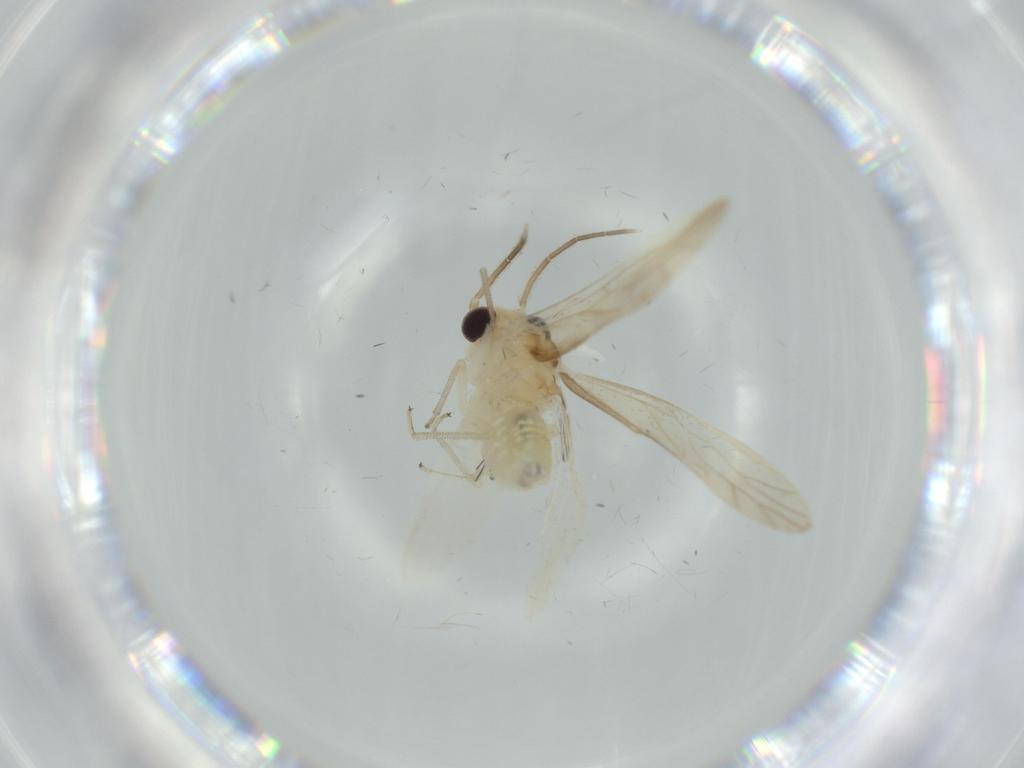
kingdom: Animalia
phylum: Arthropoda
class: Insecta
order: Psocodea
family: Caeciliusidae
